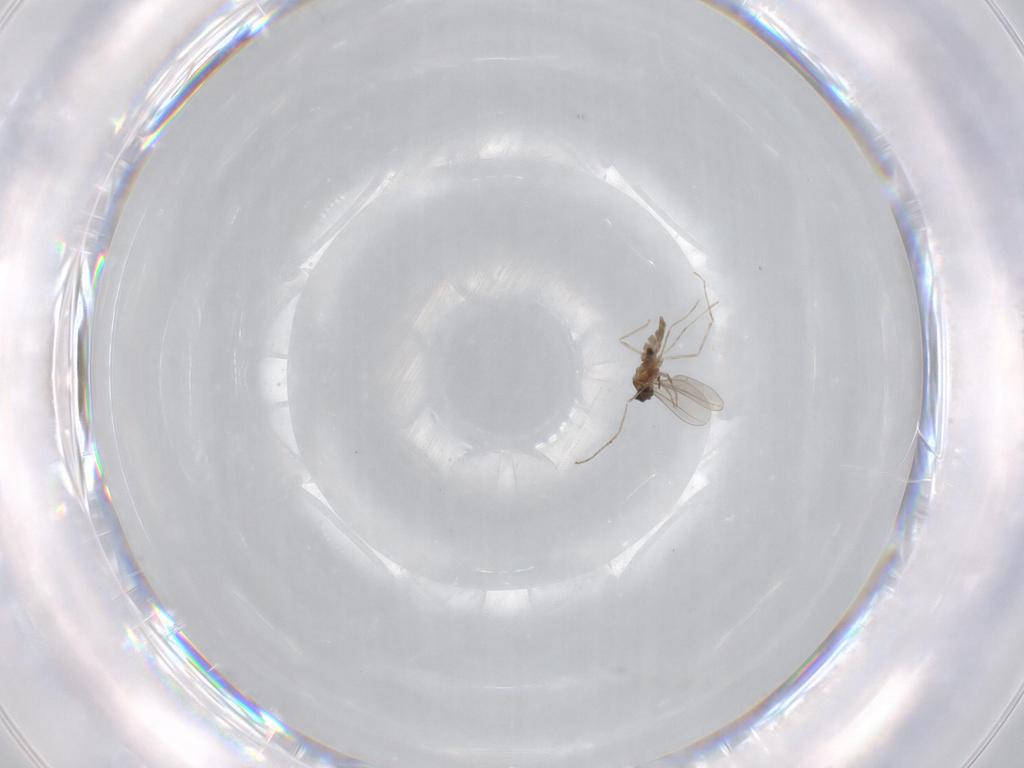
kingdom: Animalia
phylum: Arthropoda
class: Insecta
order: Diptera
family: Chironomidae
